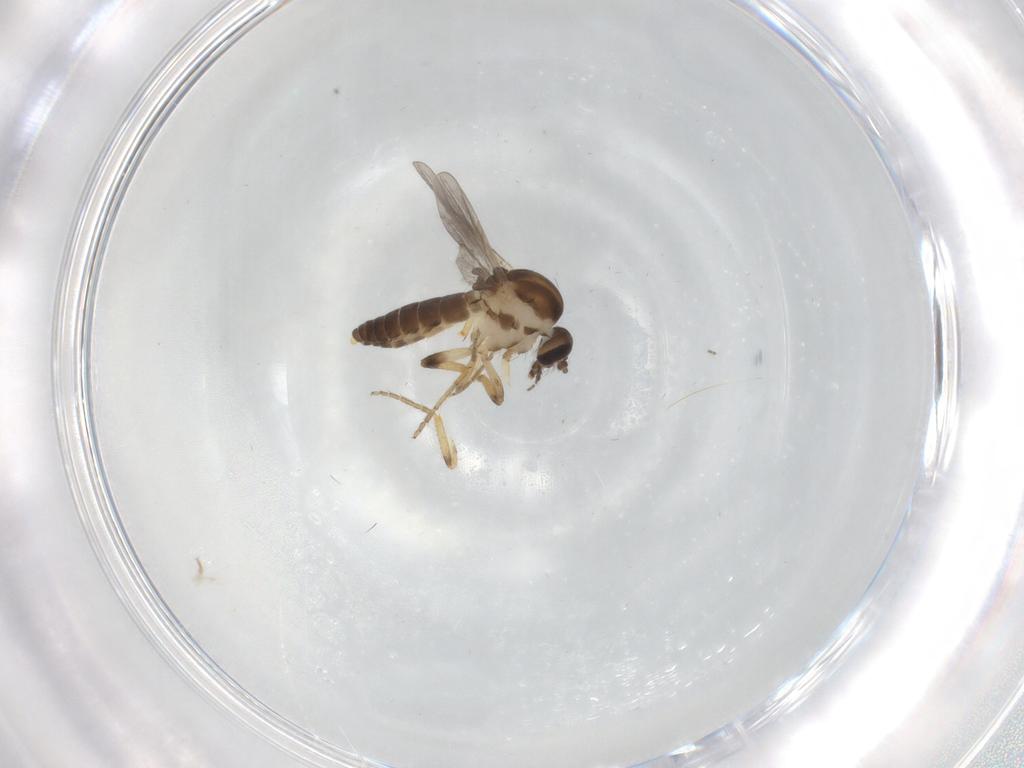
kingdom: Animalia
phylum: Arthropoda
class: Insecta
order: Diptera
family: Ceratopogonidae
